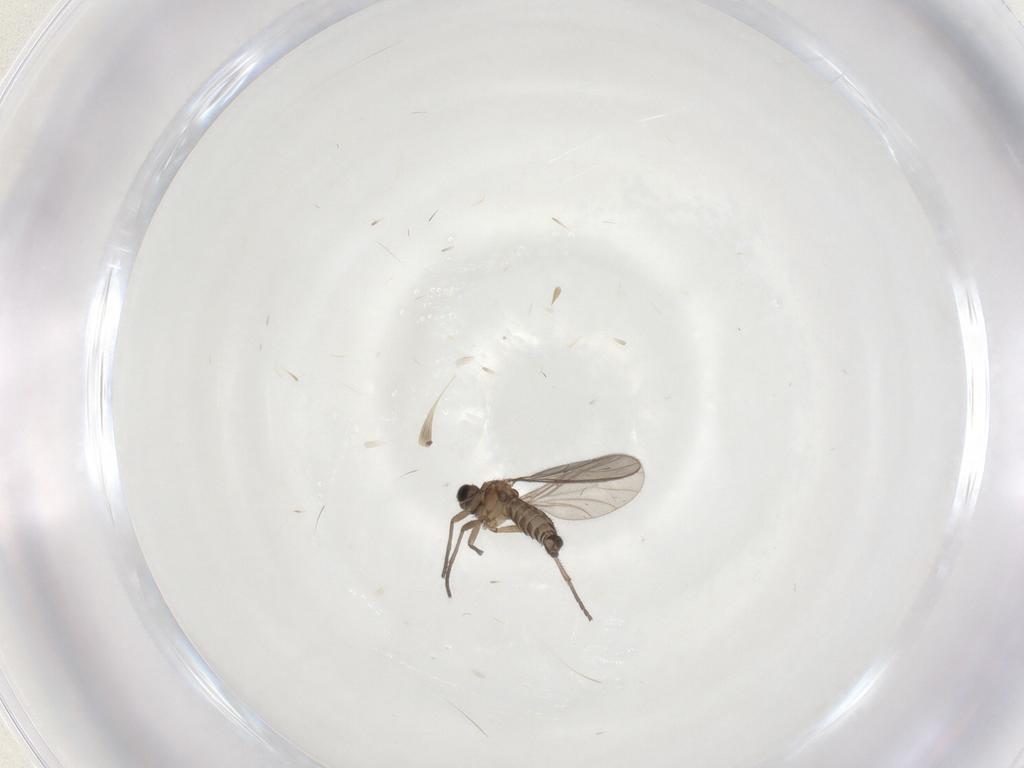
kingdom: Animalia
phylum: Arthropoda
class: Insecta
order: Diptera
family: Sciaridae
